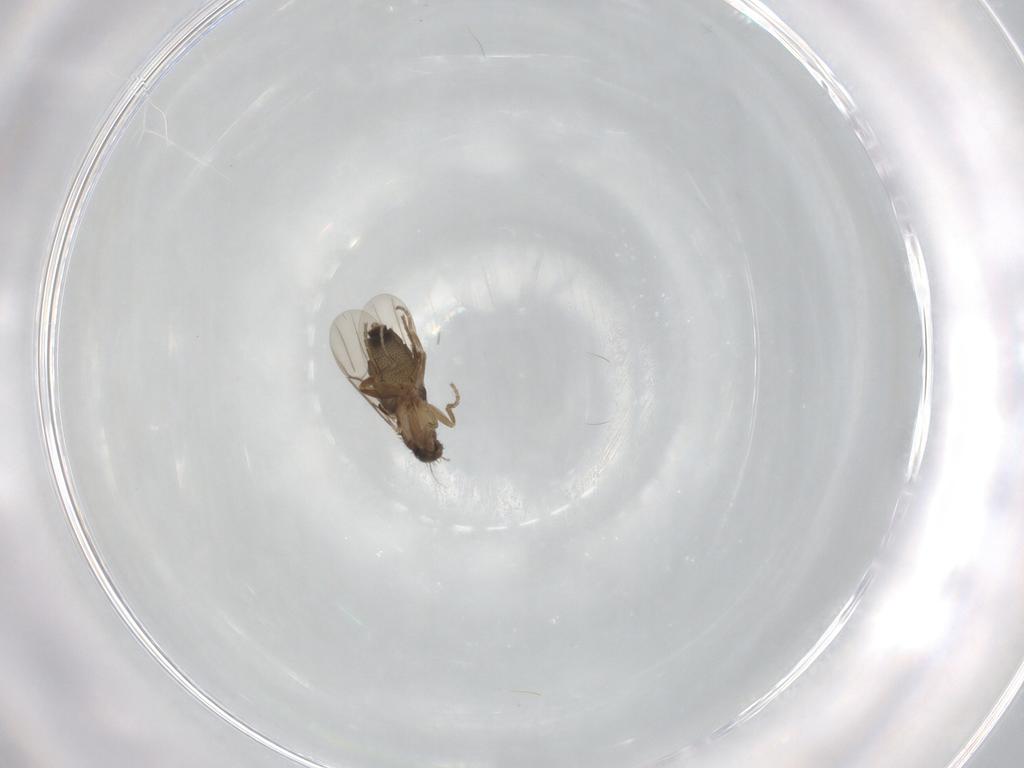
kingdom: Animalia
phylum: Arthropoda
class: Insecta
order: Diptera
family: Phoridae
